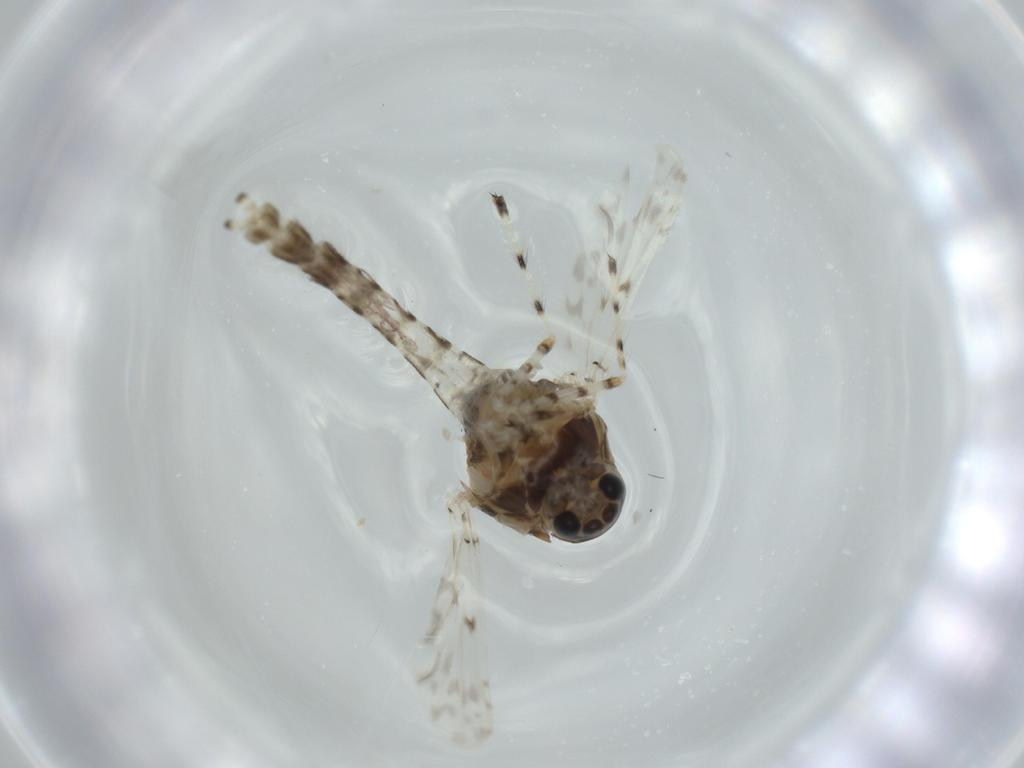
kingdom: Animalia
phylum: Arthropoda
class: Insecta
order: Diptera
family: Chironomidae
